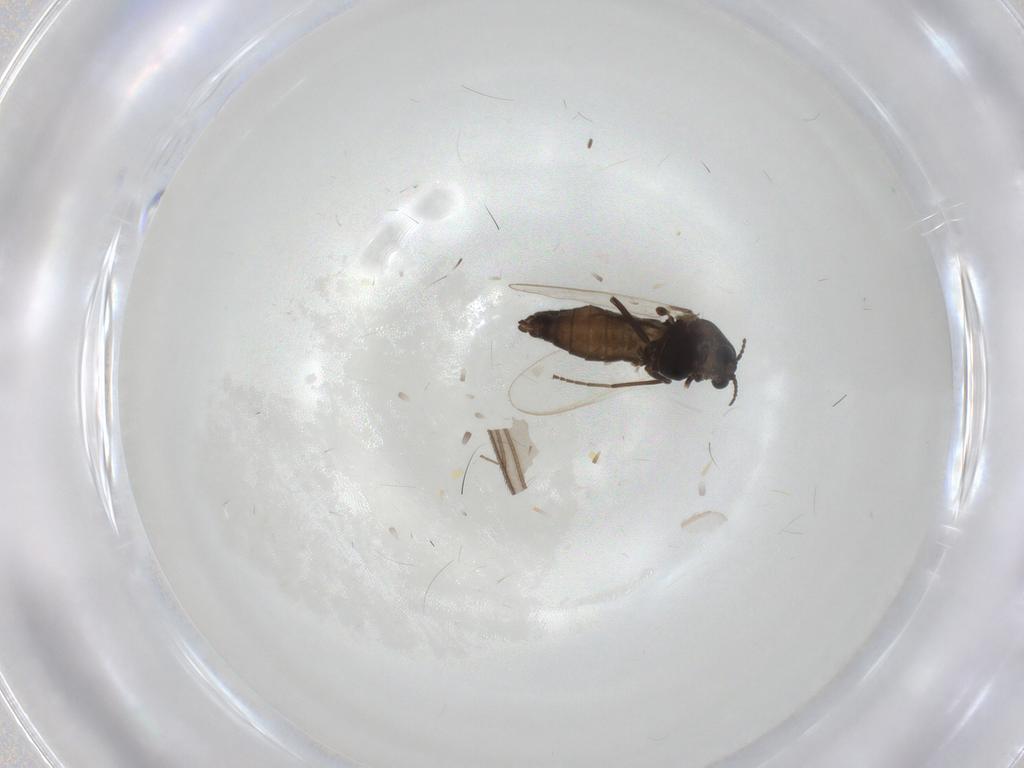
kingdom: Animalia
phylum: Arthropoda
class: Insecta
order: Diptera
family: Chironomidae
